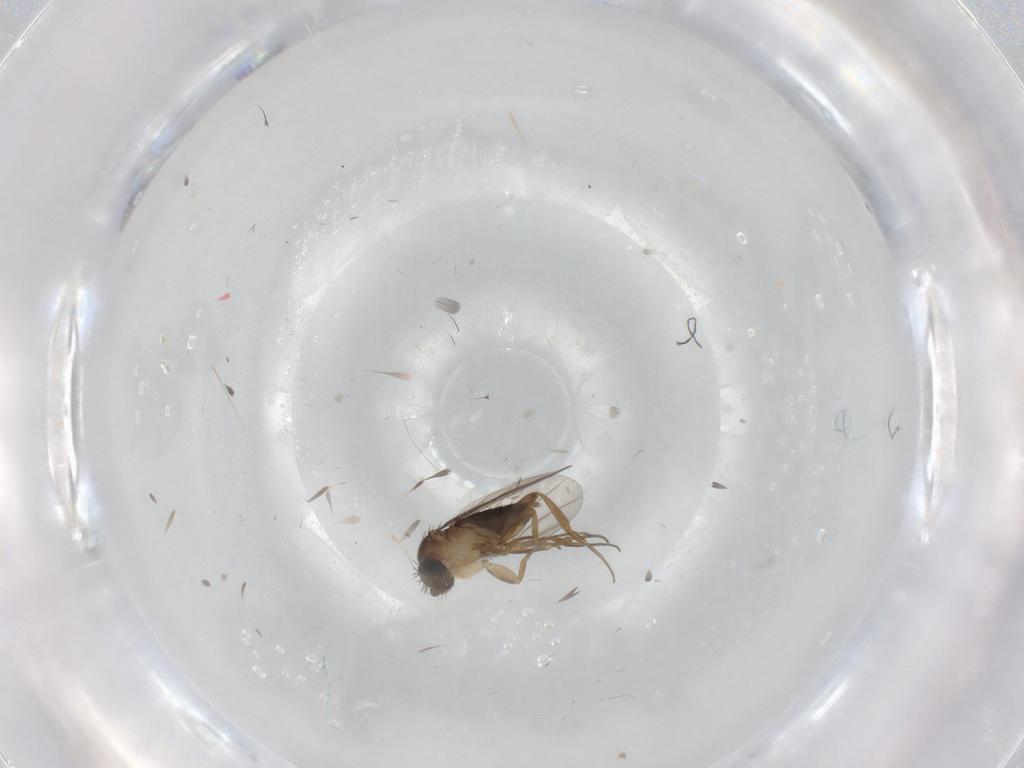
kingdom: Animalia
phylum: Arthropoda
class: Insecta
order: Diptera
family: Phoridae
